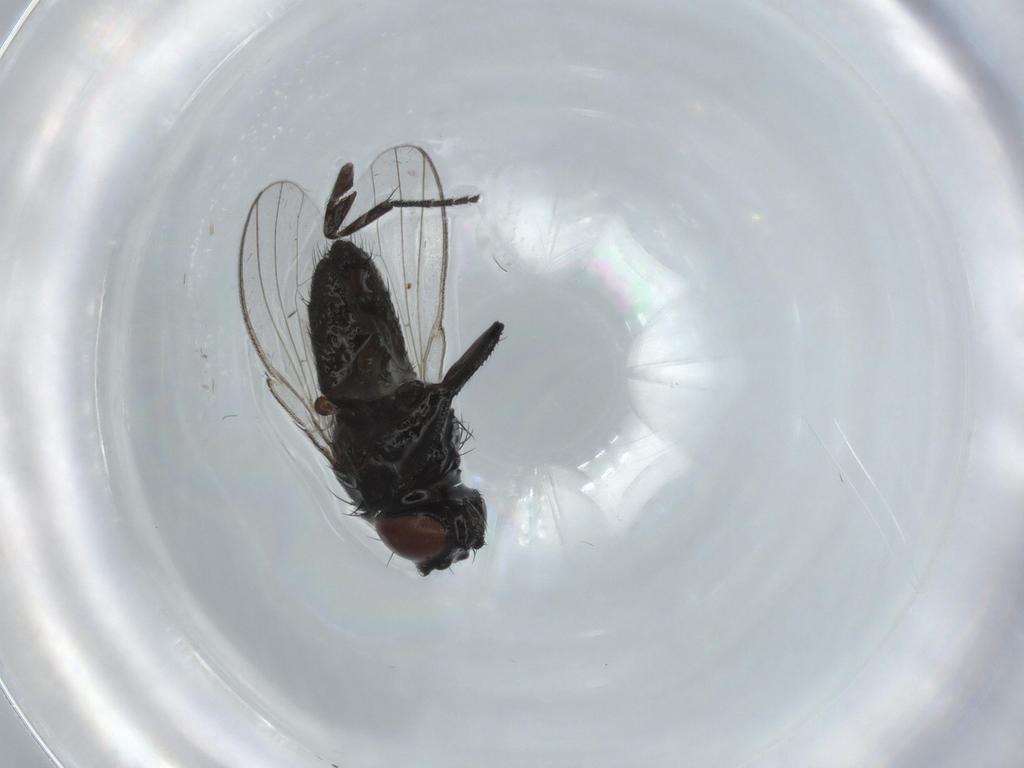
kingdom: Animalia
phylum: Arthropoda
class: Insecta
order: Diptera
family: Milichiidae
